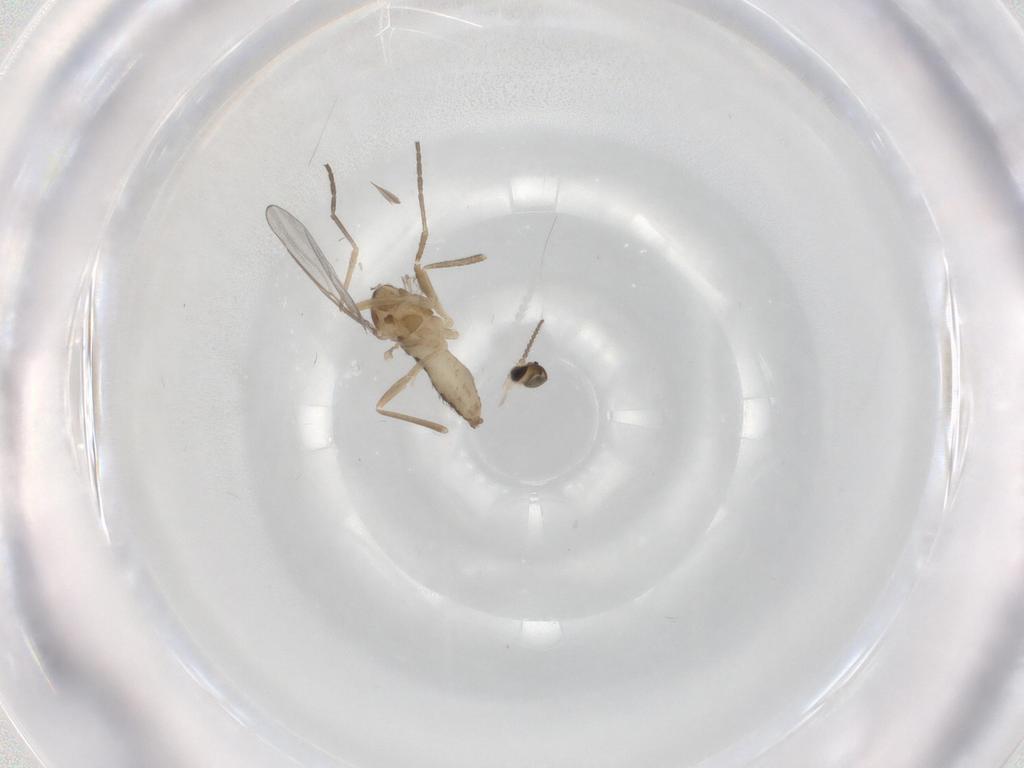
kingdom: Animalia
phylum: Arthropoda
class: Insecta
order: Diptera
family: Cecidomyiidae
